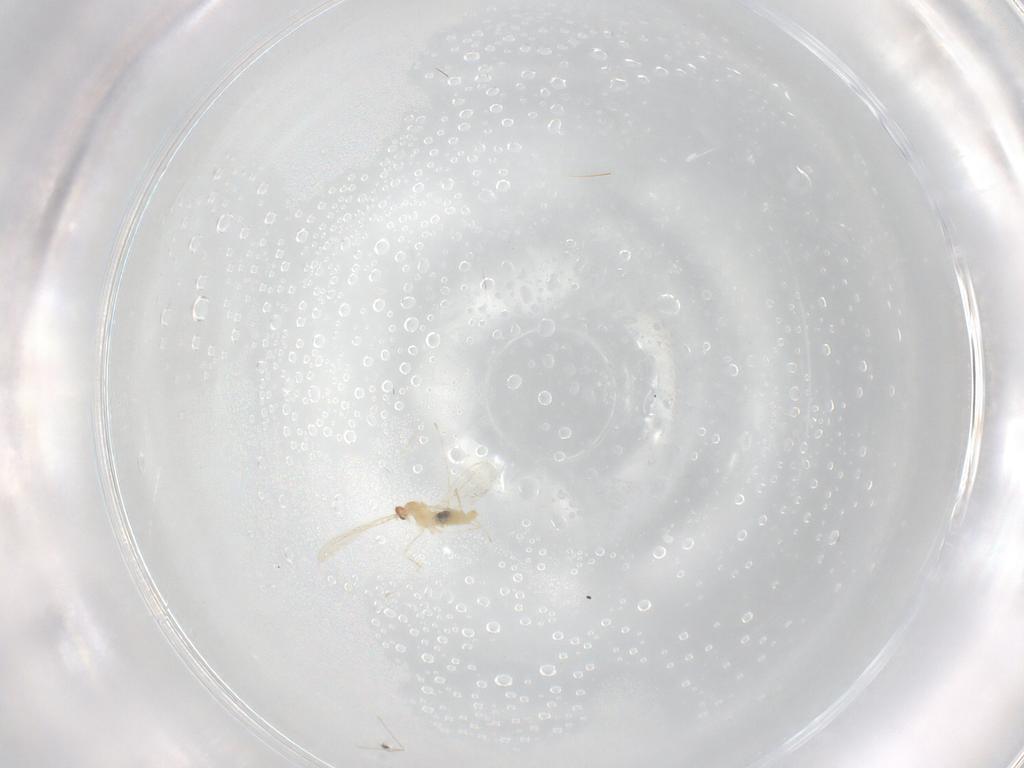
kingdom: Animalia
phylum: Arthropoda
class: Insecta
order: Diptera
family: Cecidomyiidae
